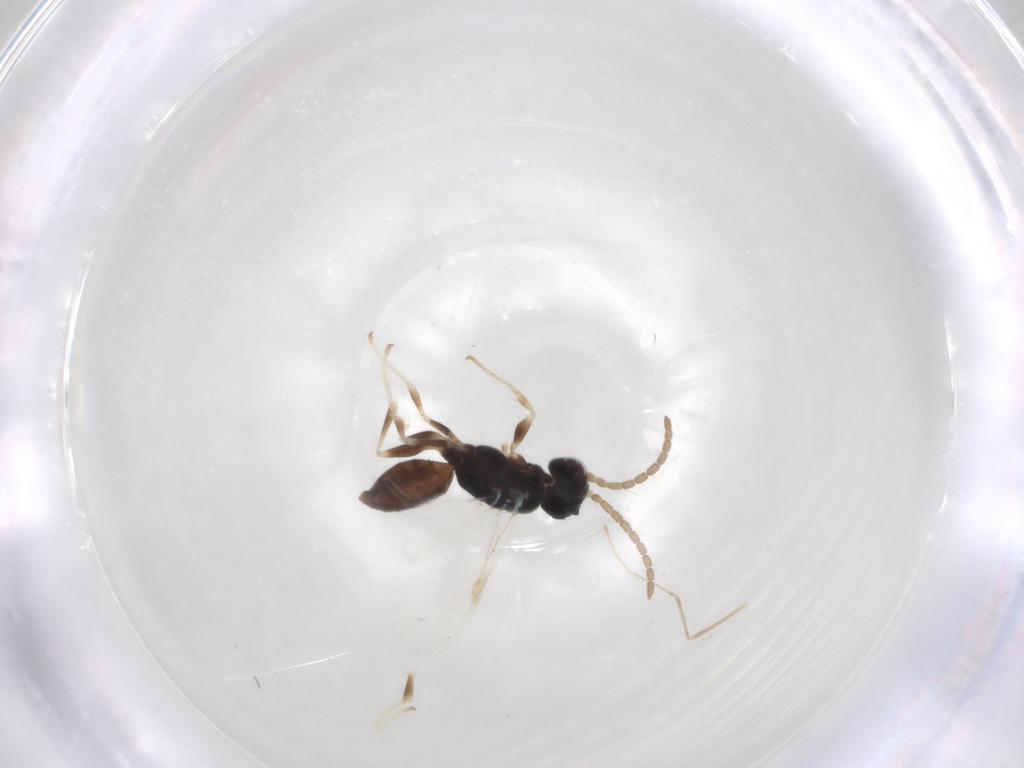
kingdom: Animalia
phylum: Arthropoda
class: Insecta
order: Hymenoptera
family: Dryinidae
